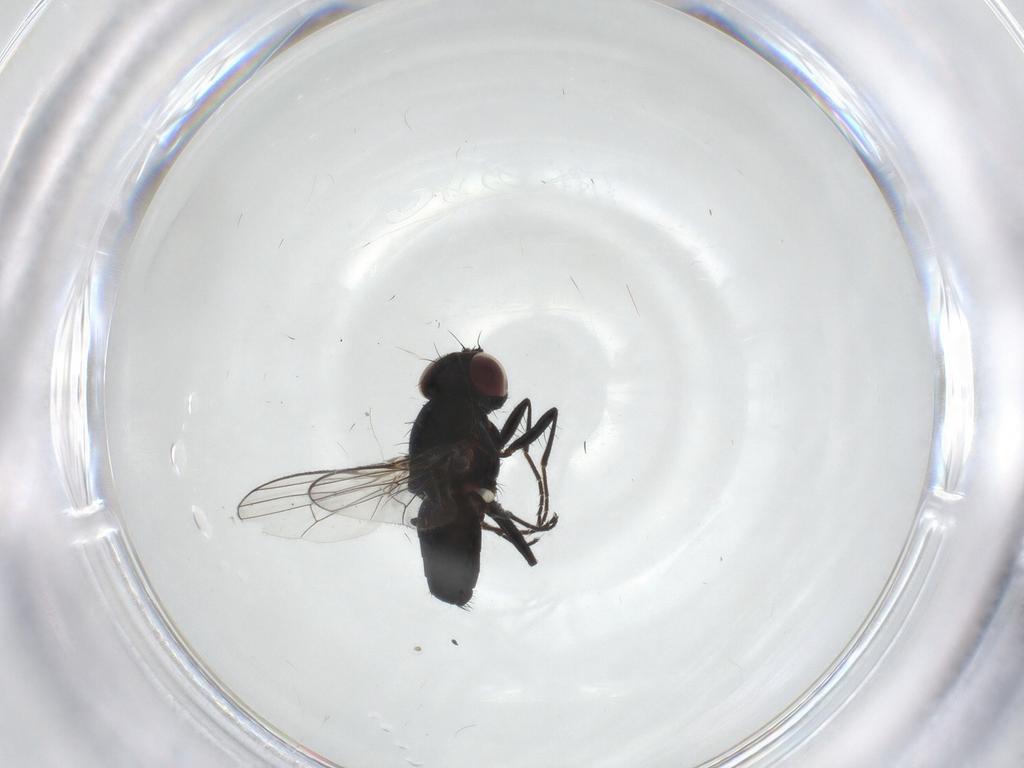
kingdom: Animalia
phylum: Arthropoda
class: Insecta
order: Diptera
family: Carnidae
